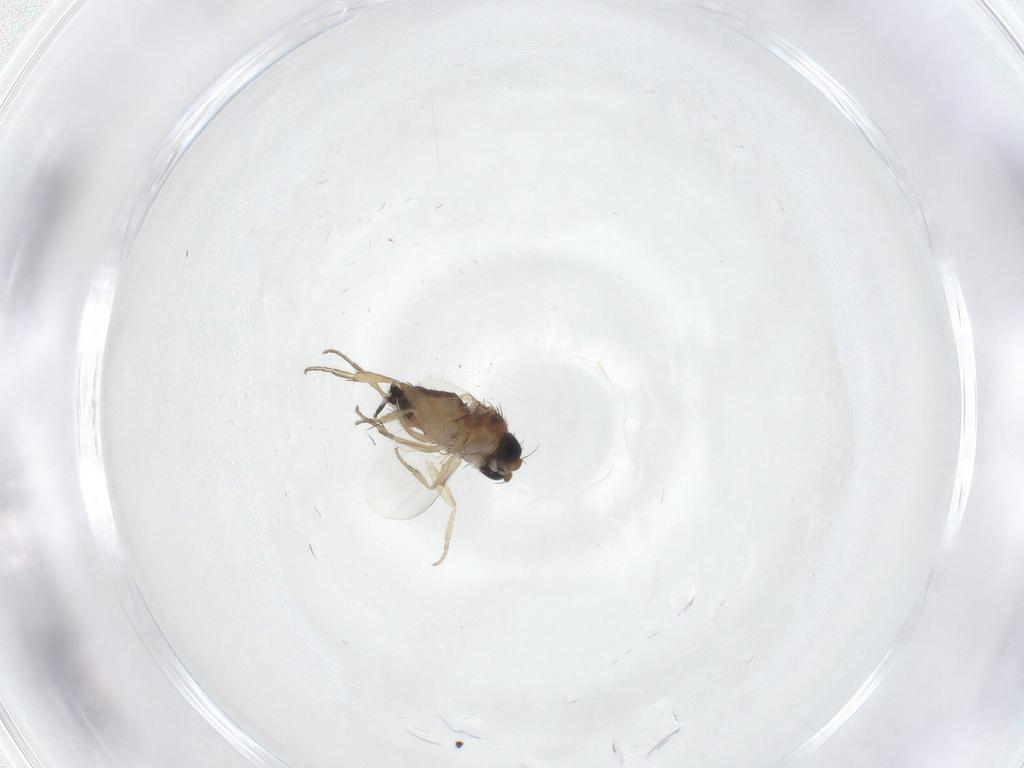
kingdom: Animalia
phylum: Arthropoda
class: Insecta
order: Diptera
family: Phoridae
